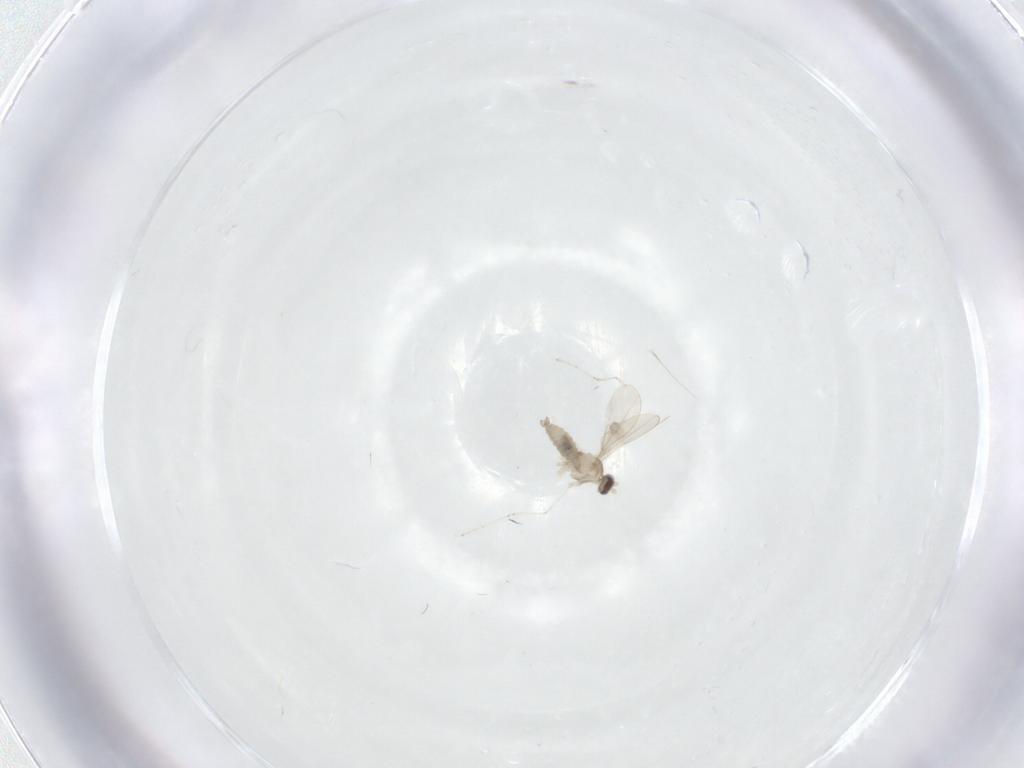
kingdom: Animalia
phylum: Arthropoda
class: Insecta
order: Diptera
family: Cecidomyiidae
